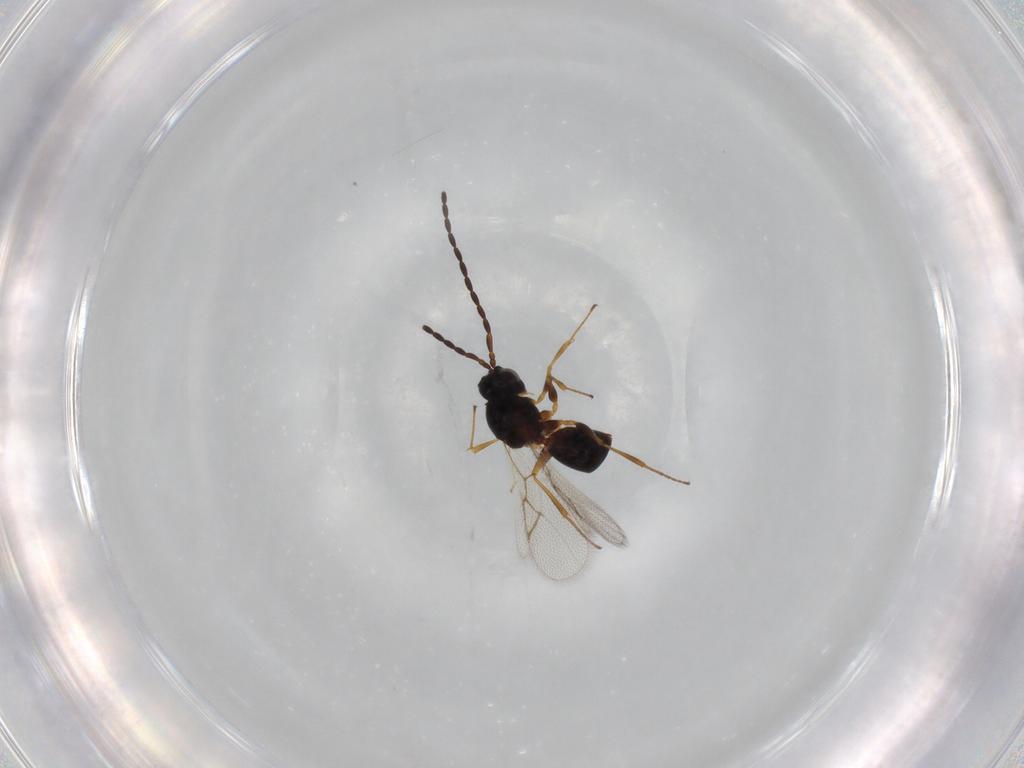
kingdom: Animalia
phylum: Arthropoda
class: Insecta
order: Hymenoptera
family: Figitidae
